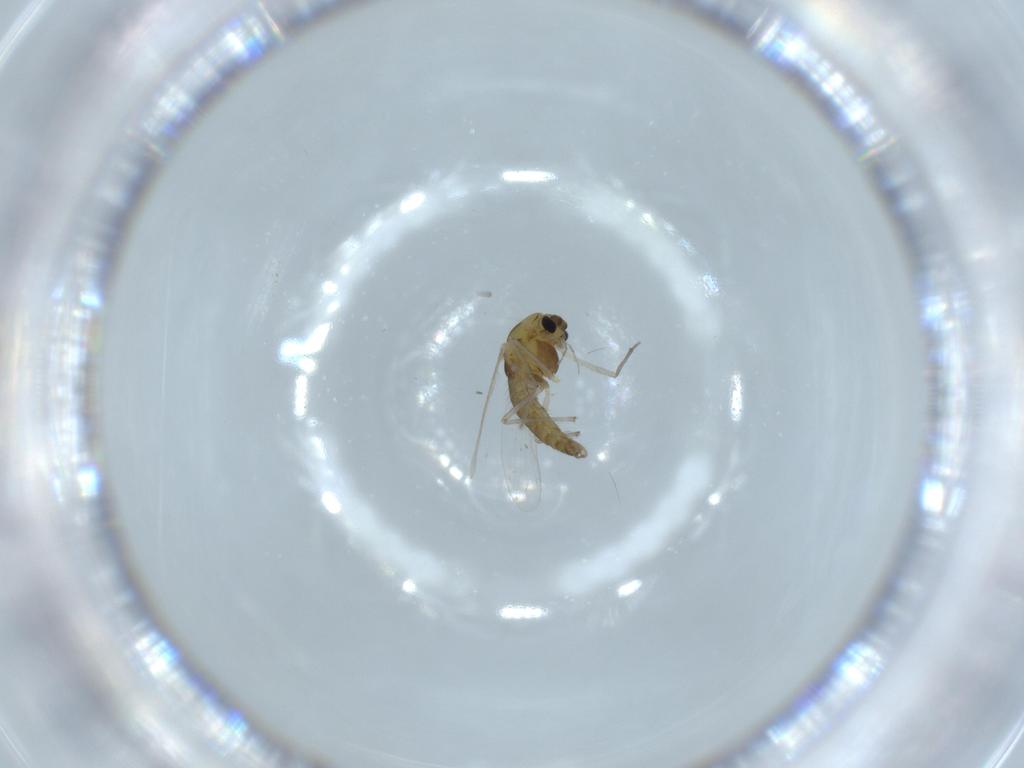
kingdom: Animalia
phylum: Arthropoda
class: Insecta
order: Diptera
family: Chironomidae
